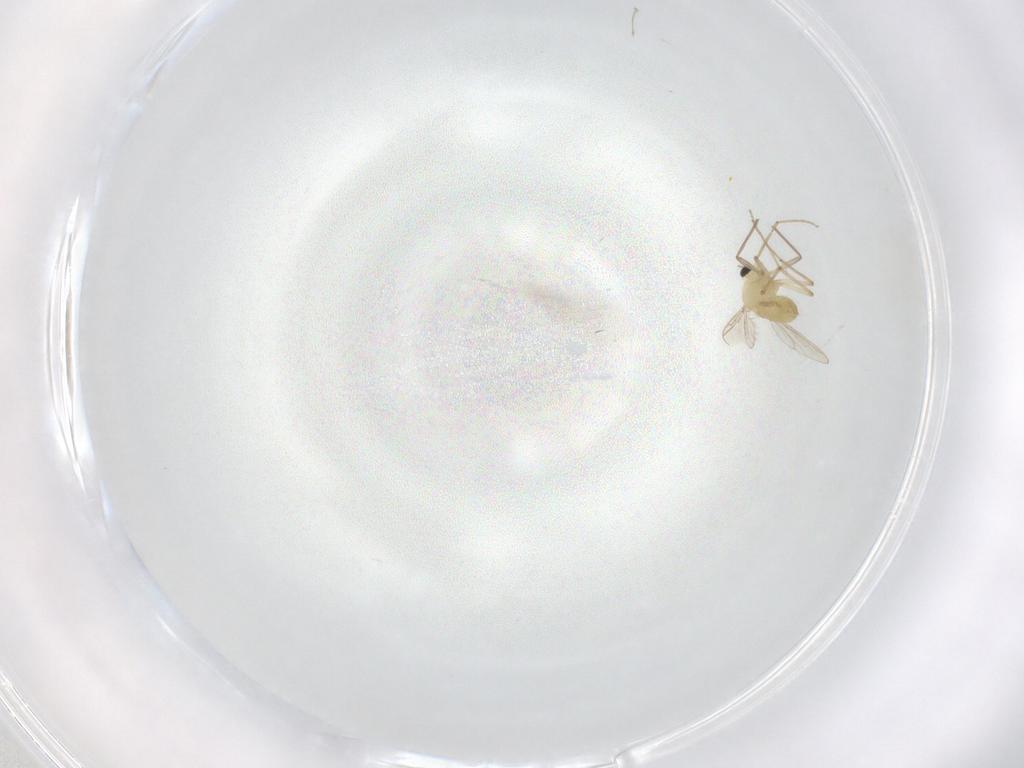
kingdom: Animalia
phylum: Arthropoda
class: Insecta
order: Diptera
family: Cecidomyiidae
